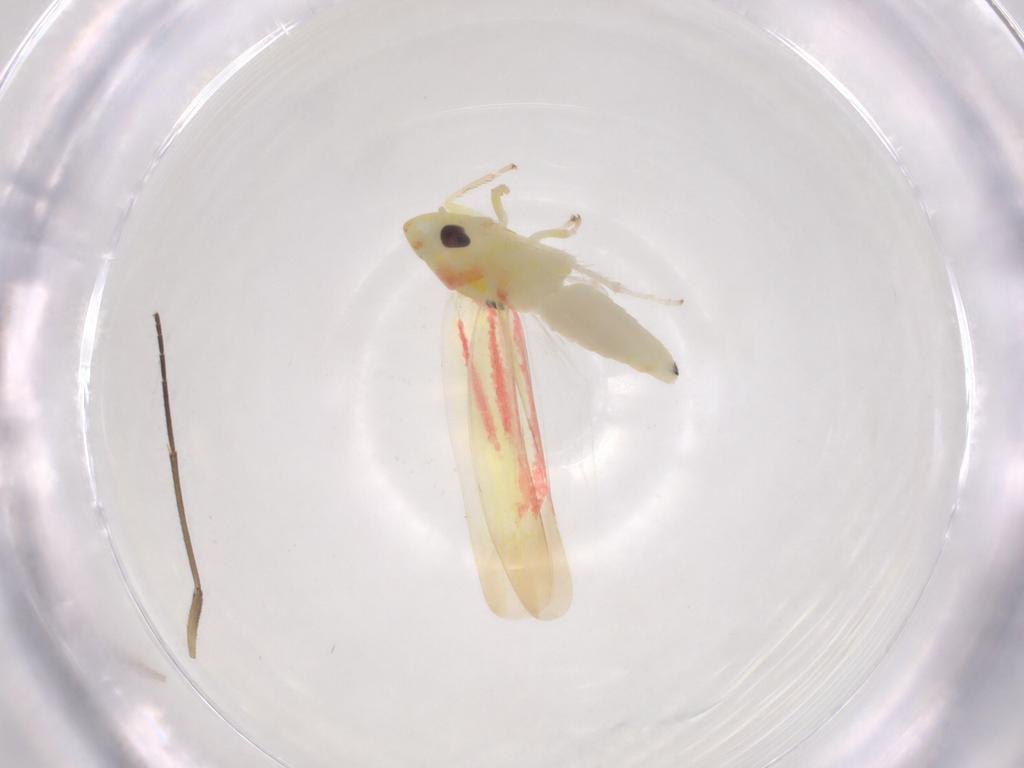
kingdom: Animalia
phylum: Arthropoda
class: Insecta
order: Hemiptera
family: Cicadellidae
